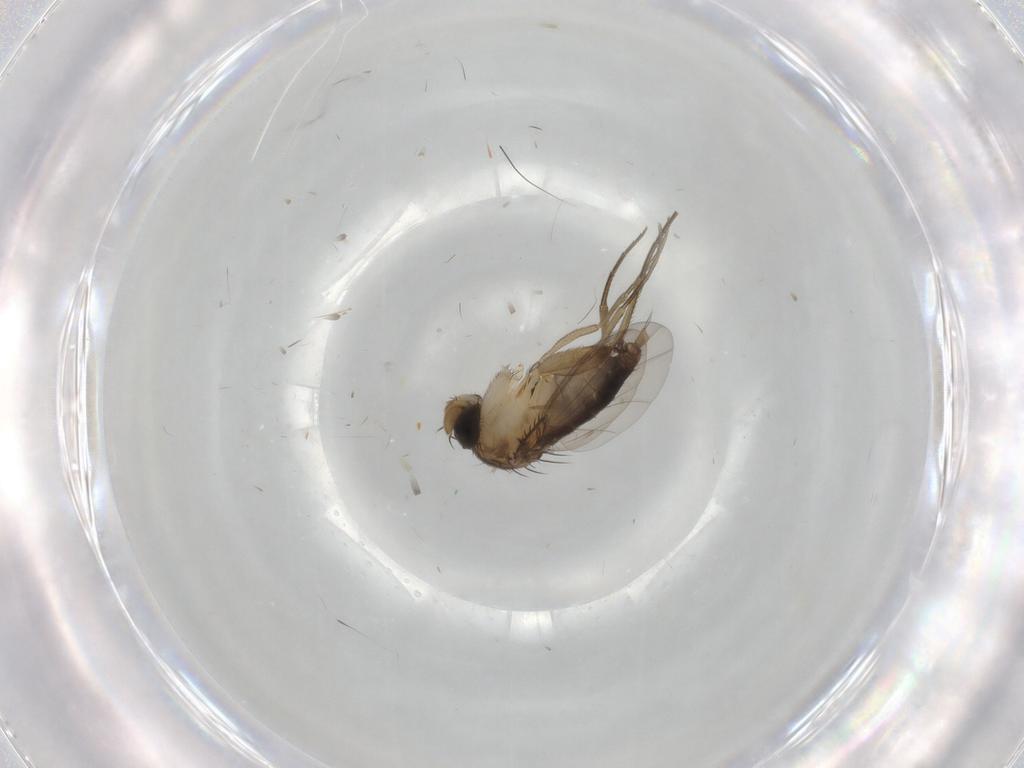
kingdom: Animalia
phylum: Arthropoda
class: Insecta
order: Diptera
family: Phoridae
